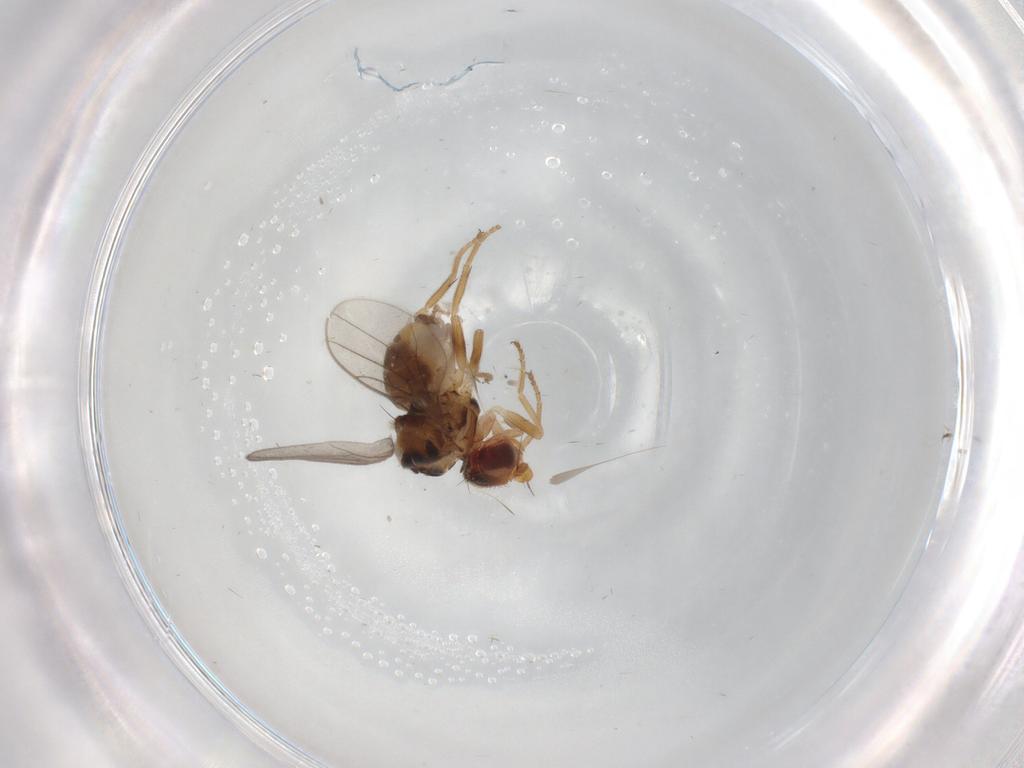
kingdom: Animalia
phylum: Arthropoda
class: Insecta
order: Diptera
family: Chloropidae
